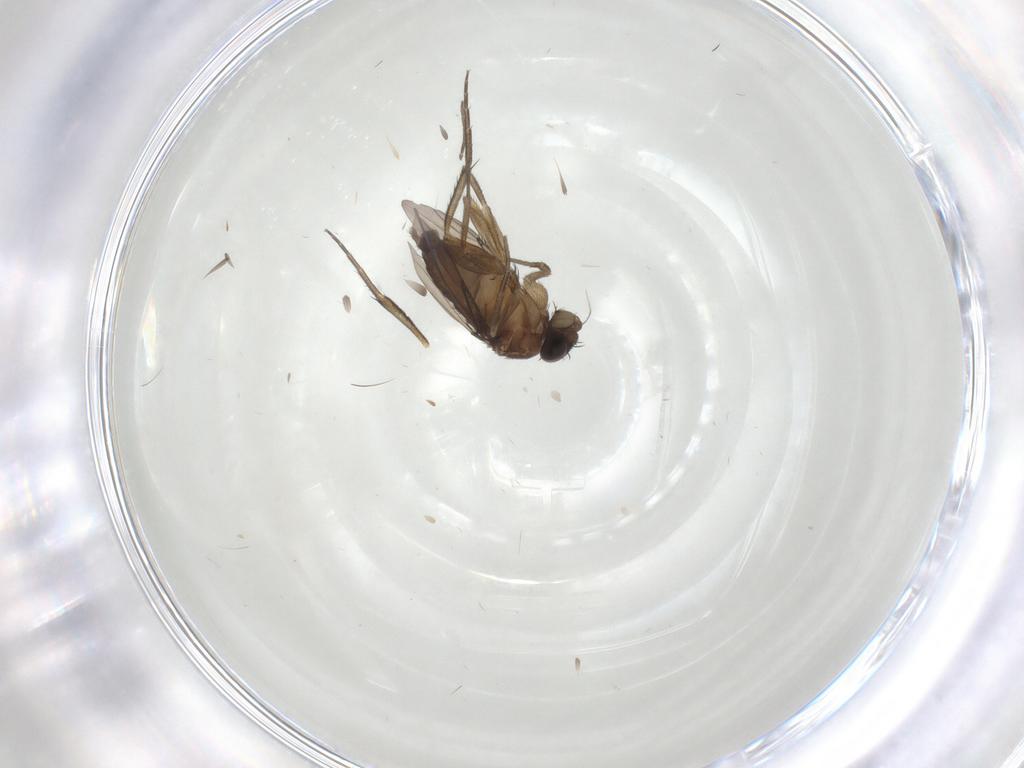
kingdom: Animalia
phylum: Arthropoda
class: Insecta
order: Diptera
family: Phoridae
